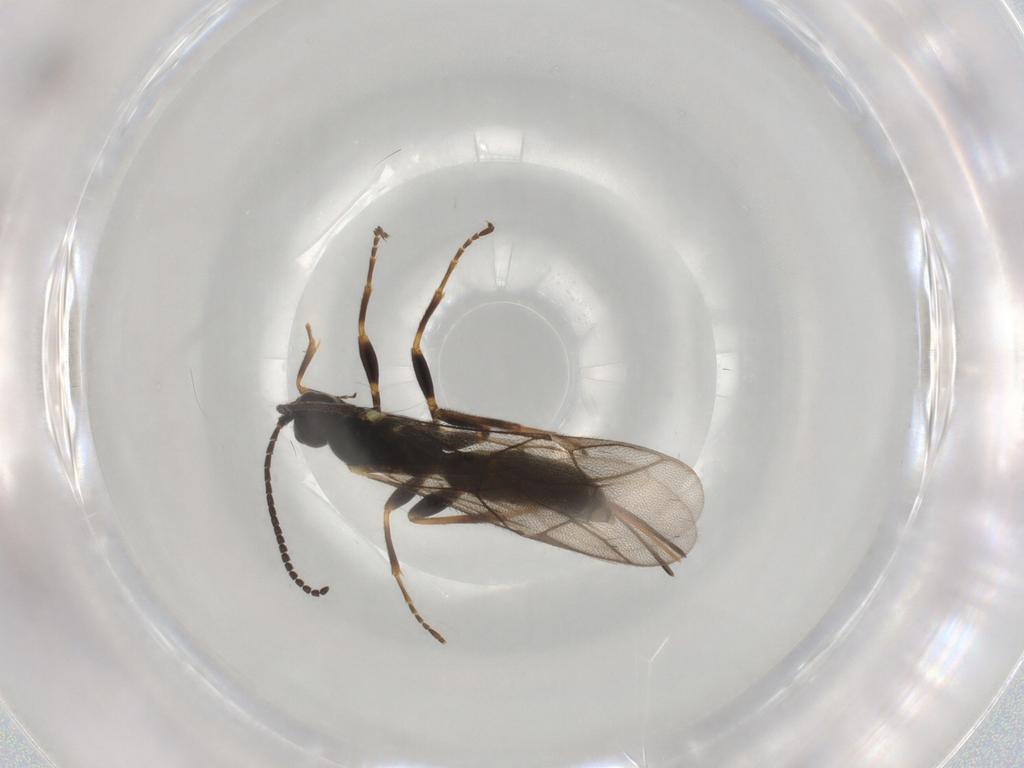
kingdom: Animalia
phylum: Arthropoda
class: Insecta
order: Hymenoptera
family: Ichneumonidae
